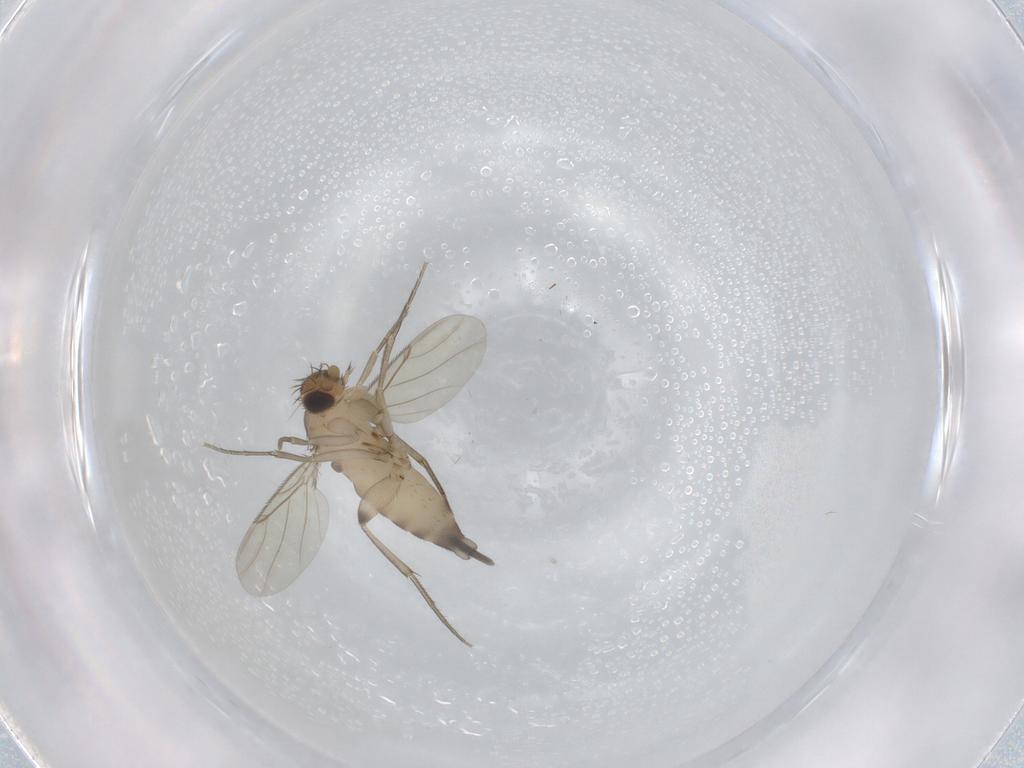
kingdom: Animalia
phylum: Arthropoda
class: Insecta
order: Diptera
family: Phoridae
